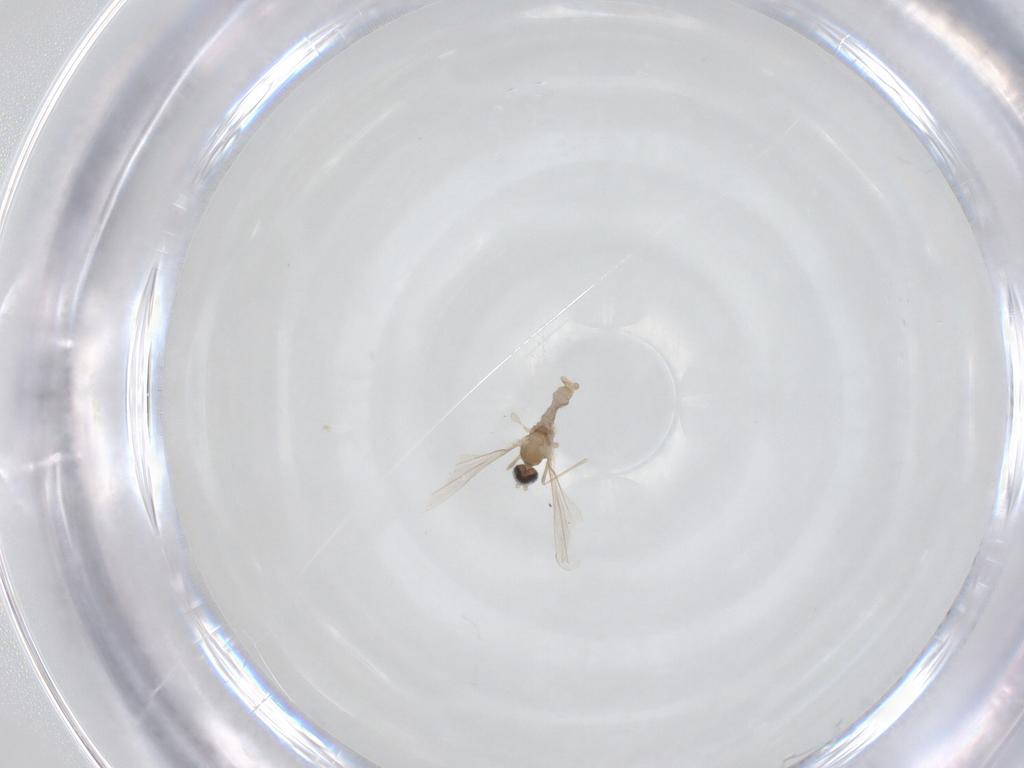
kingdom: Animalia
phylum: Arthropoda
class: Insecta
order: Diptera
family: Cecidomyiidae
